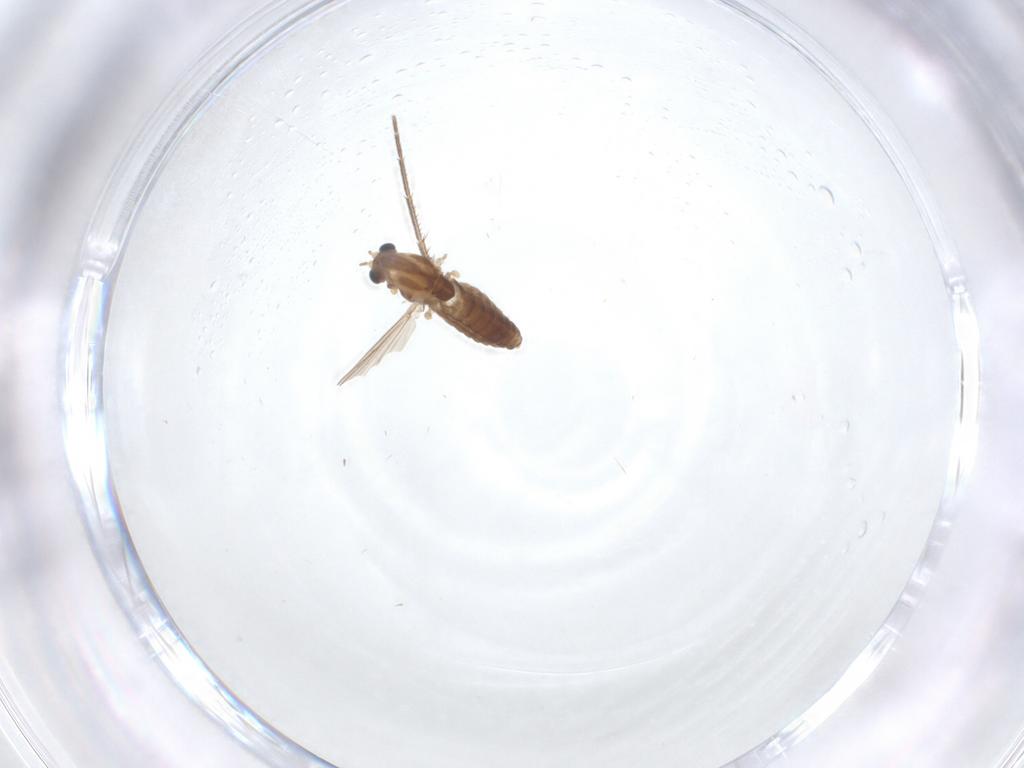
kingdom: Animalia
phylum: Arthropoda
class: Insecta
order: Diptera
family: Chironomidae
